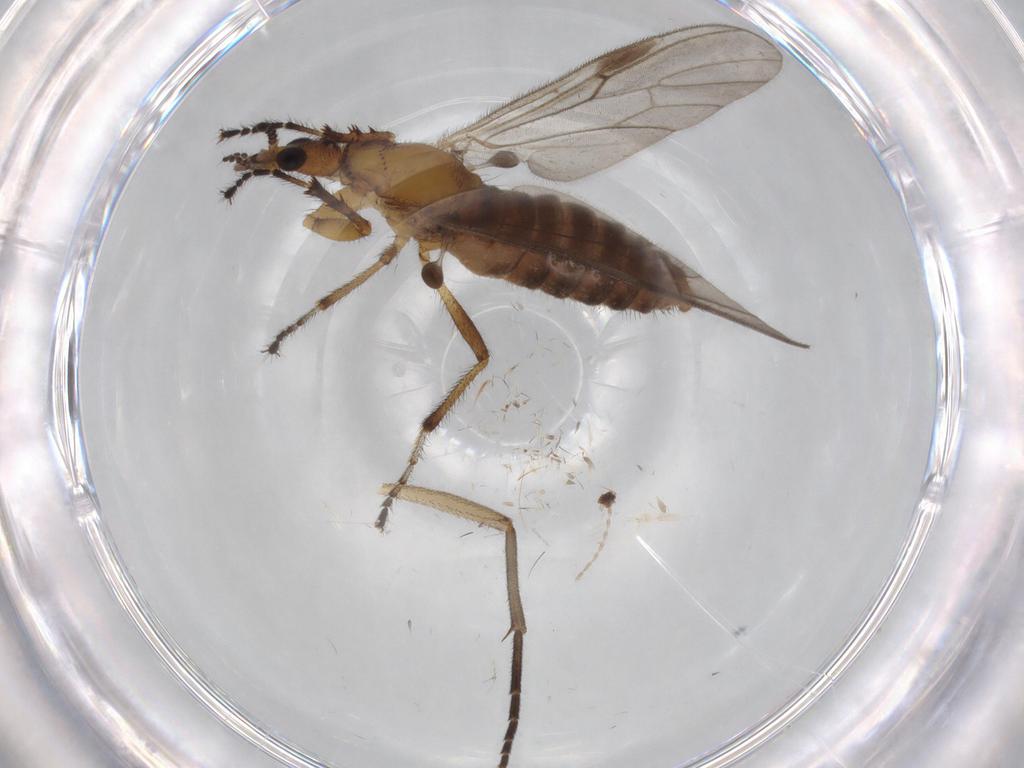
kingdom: Animalia
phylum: Arthropoda
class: Insecta
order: Diptera
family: Bibionidae
